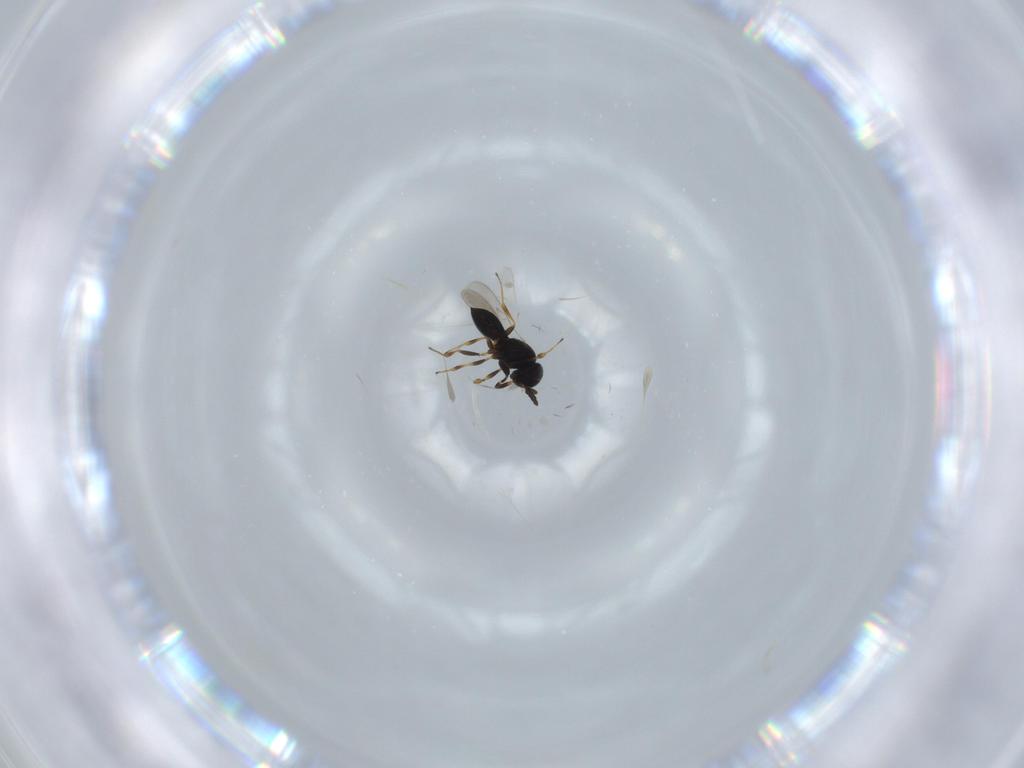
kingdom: Animalia
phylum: Arthropoda
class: Insecta
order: Hymenoptera
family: Scelionidae
